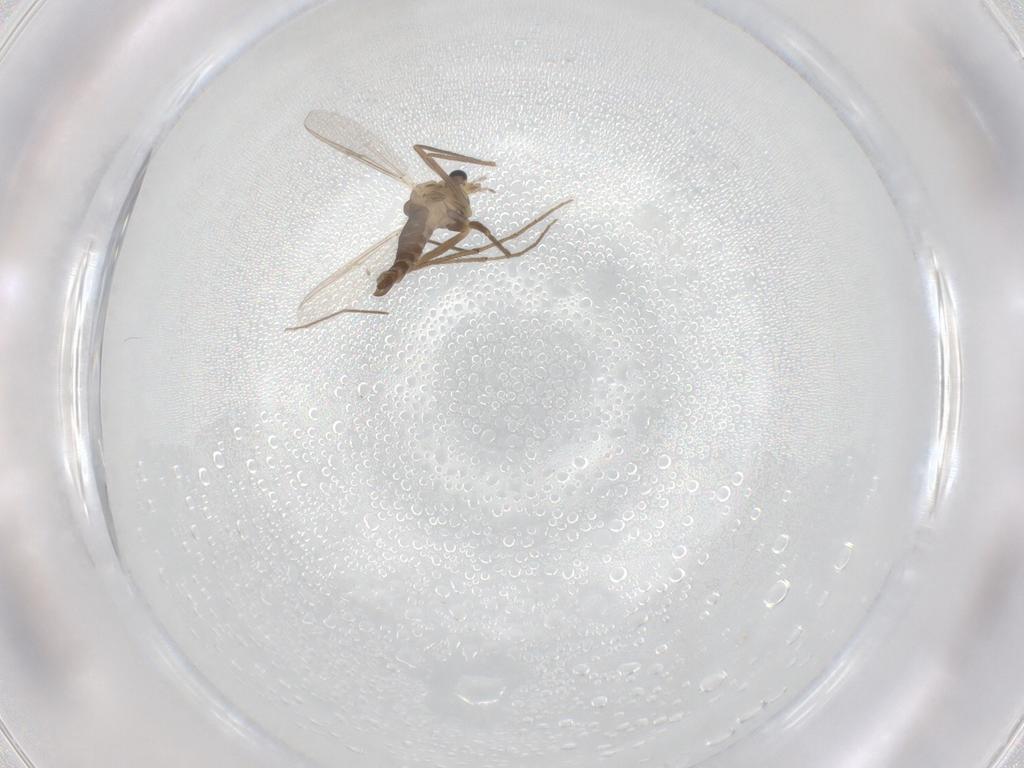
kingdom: Animalia
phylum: Arthropoda
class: Insecta
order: Diptera
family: Chironomidae
